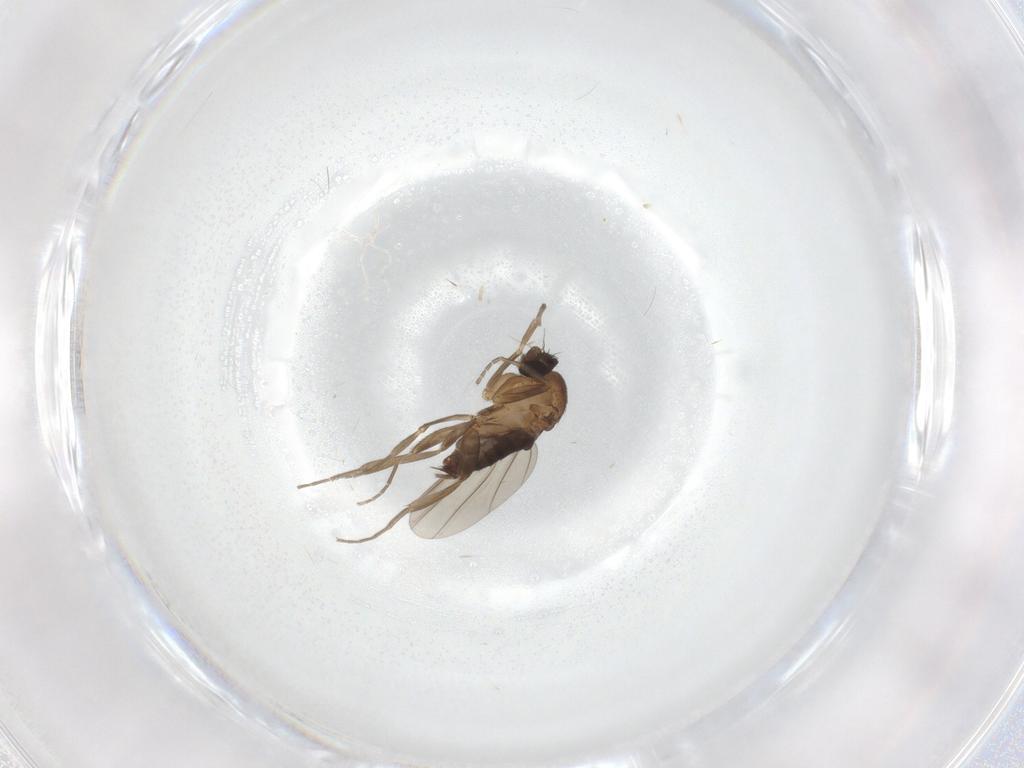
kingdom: Animalia
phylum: Arthropoda
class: Insecta
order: Diptera
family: Phoridae
